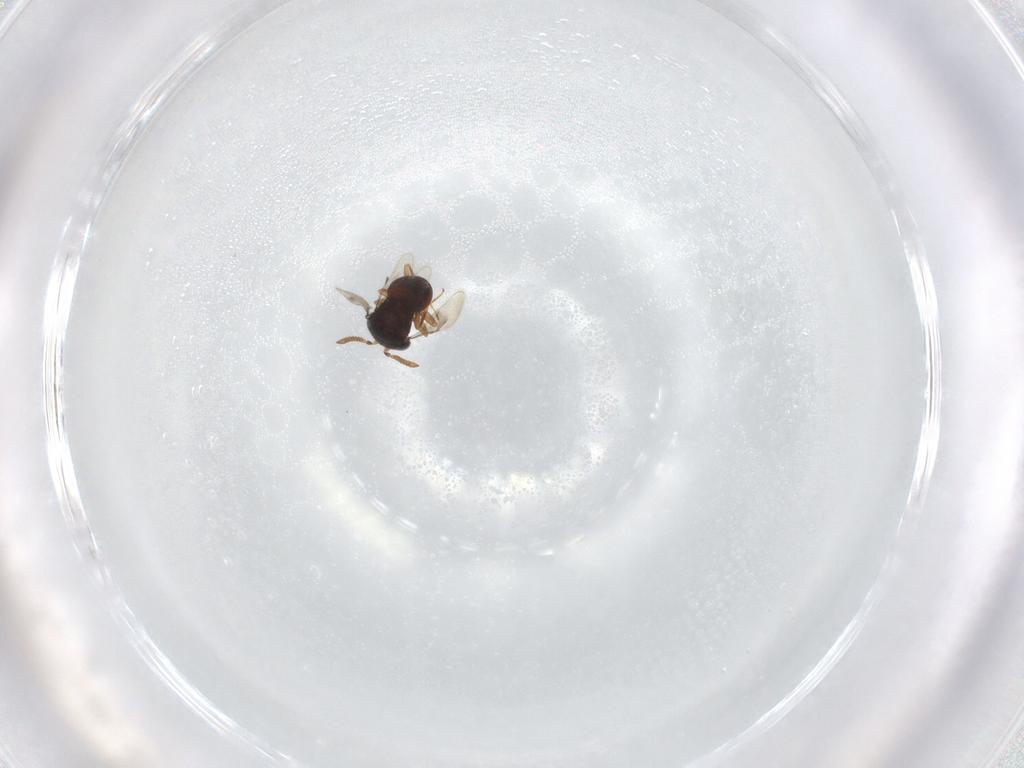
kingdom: Animalia
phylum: Arthropoda
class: Insecta
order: Hymenoptera
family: Scelionidae
